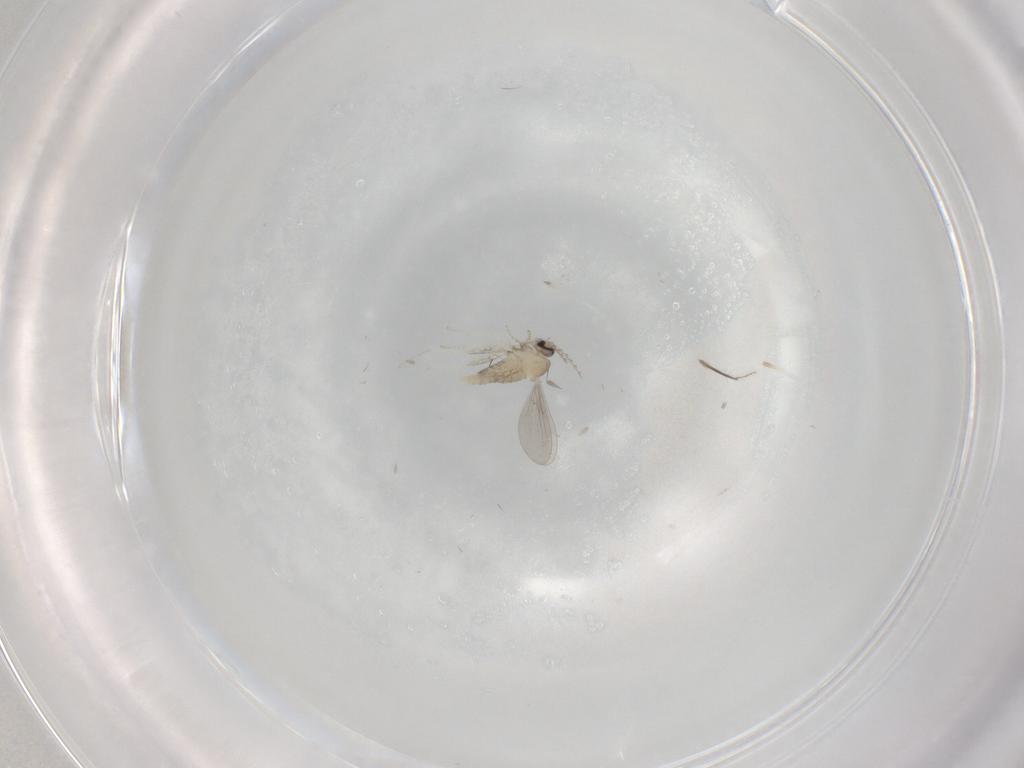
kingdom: Animalia
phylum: Arthropoda
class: Insecta
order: Diptera
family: Cecidomyiidae
